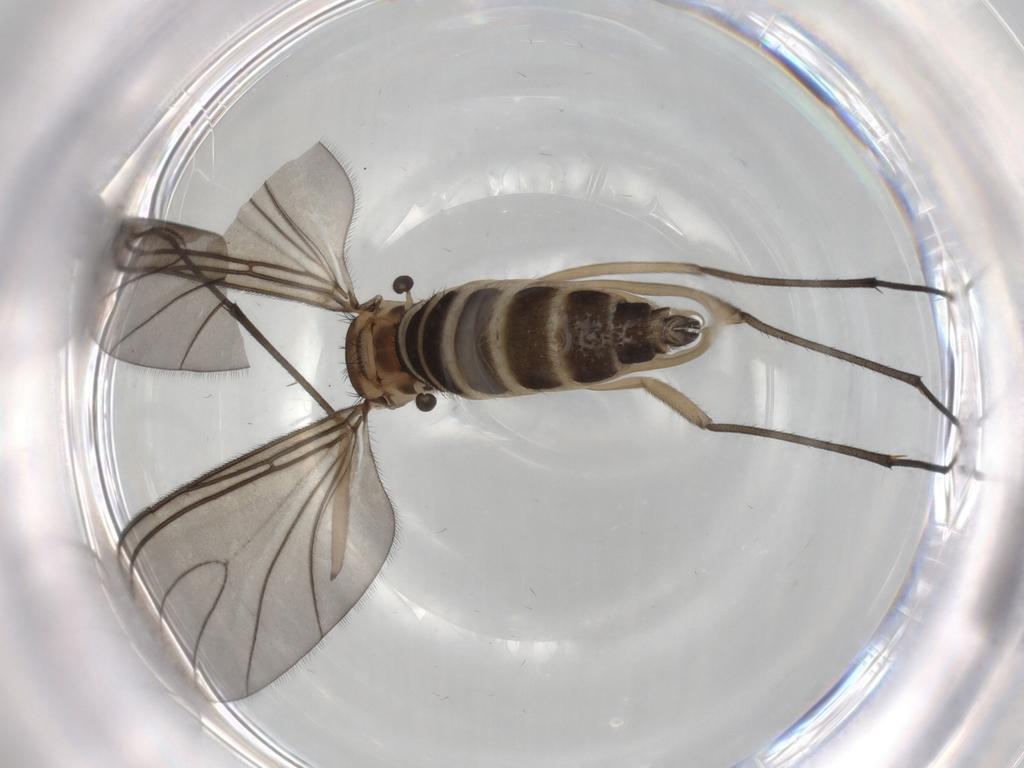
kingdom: Animalia
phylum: Arthropoda
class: Insecta
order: Diptera
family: Sciaridae
